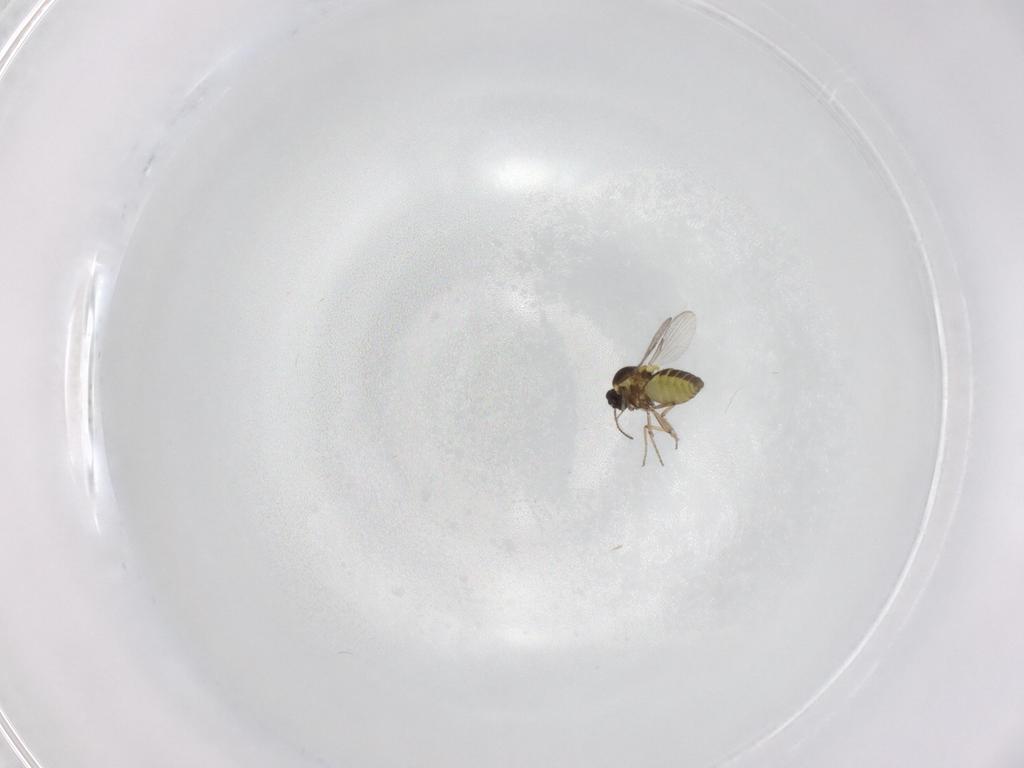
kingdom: Animalia
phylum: Arthropoda
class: Insecta
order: Diptera
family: Ceratopogonidae
